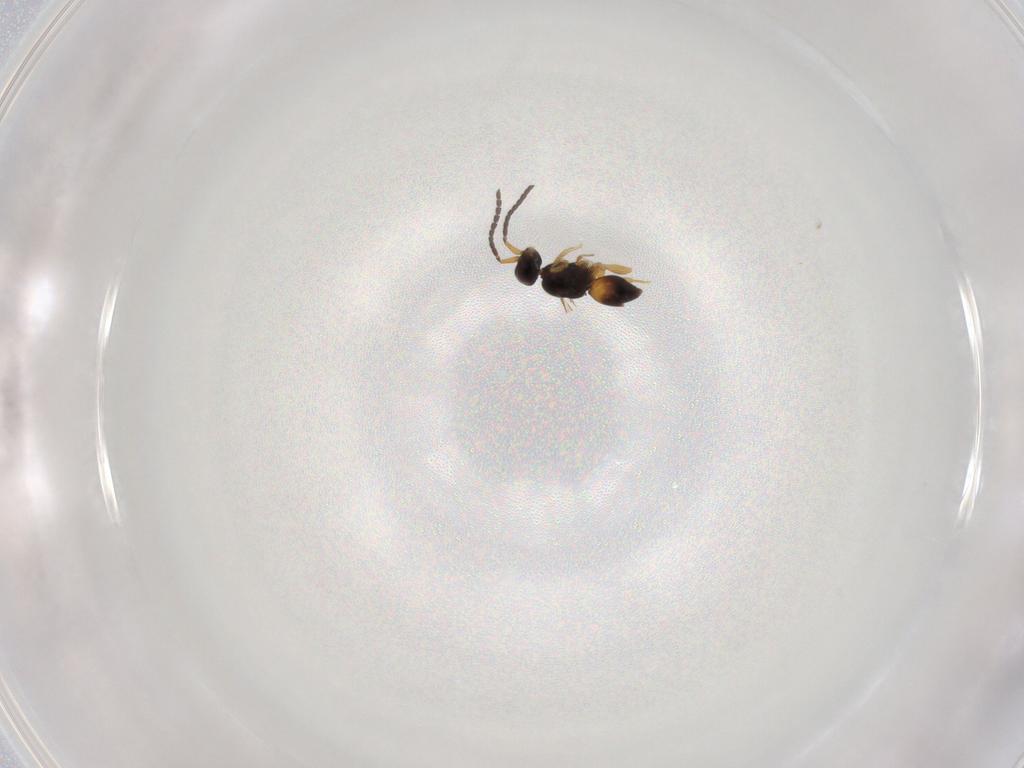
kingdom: Animalia
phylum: Arthropoda
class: Insecta
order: Hymenoptera
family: Ceraphronidae
